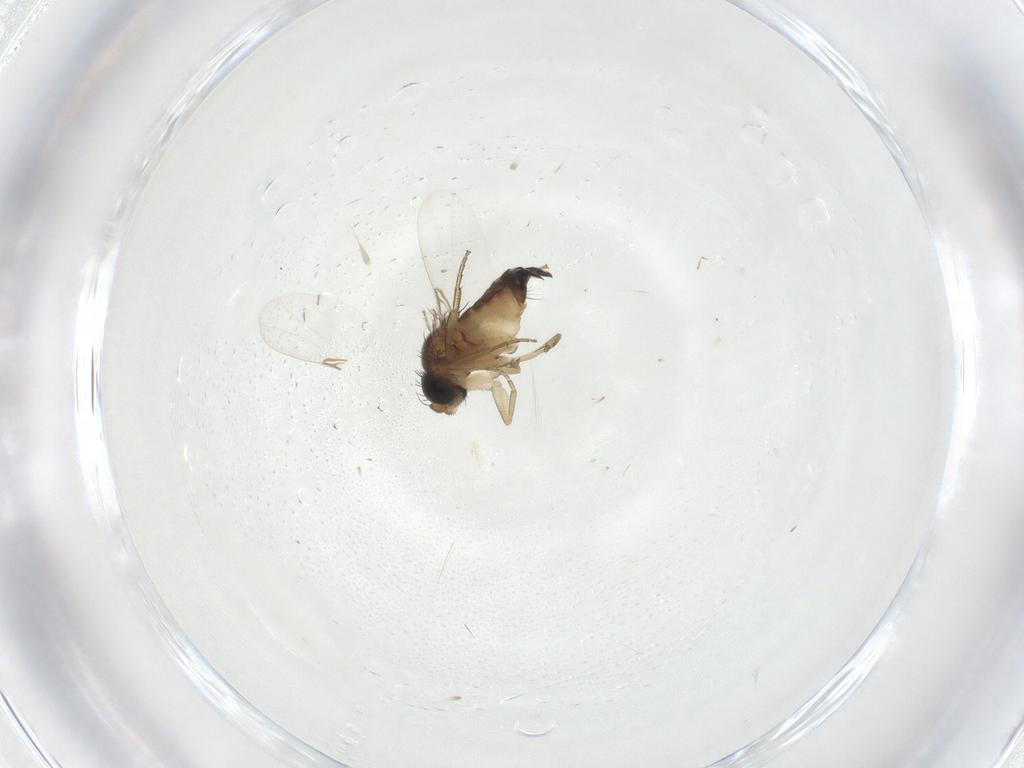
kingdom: Animalia
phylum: Arthropoda
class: Insecta
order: Diptera
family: Phoridae
